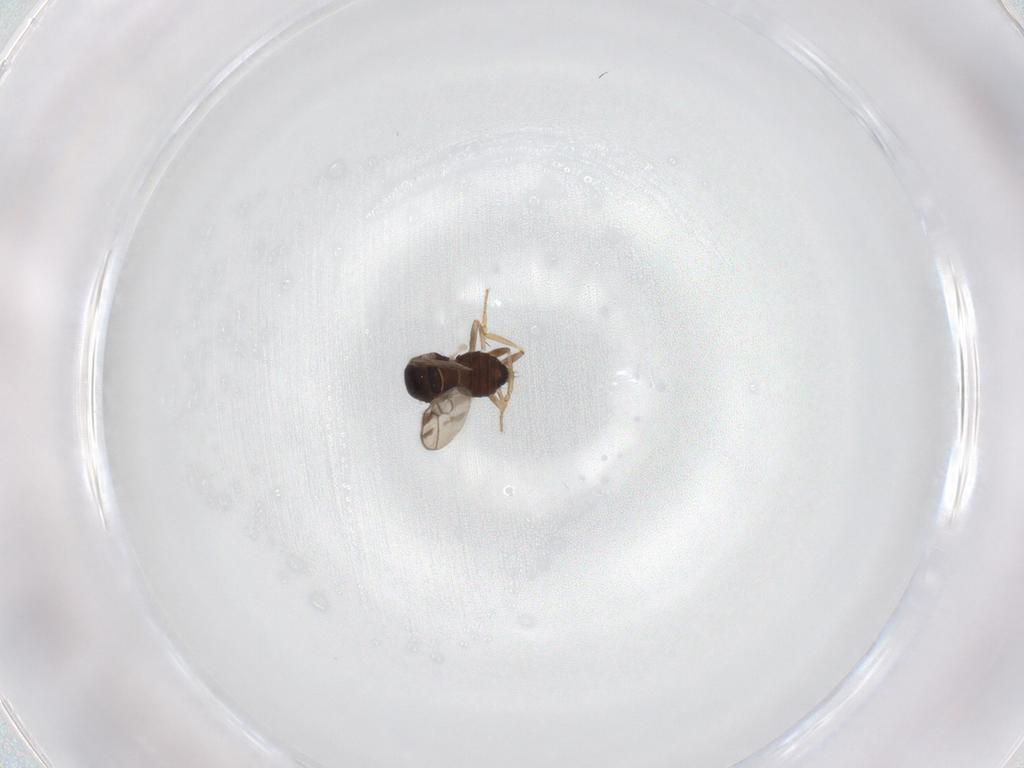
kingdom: Animalia
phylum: Arthropoda
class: Insecta
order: Diptera
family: Sphaeroceridae
